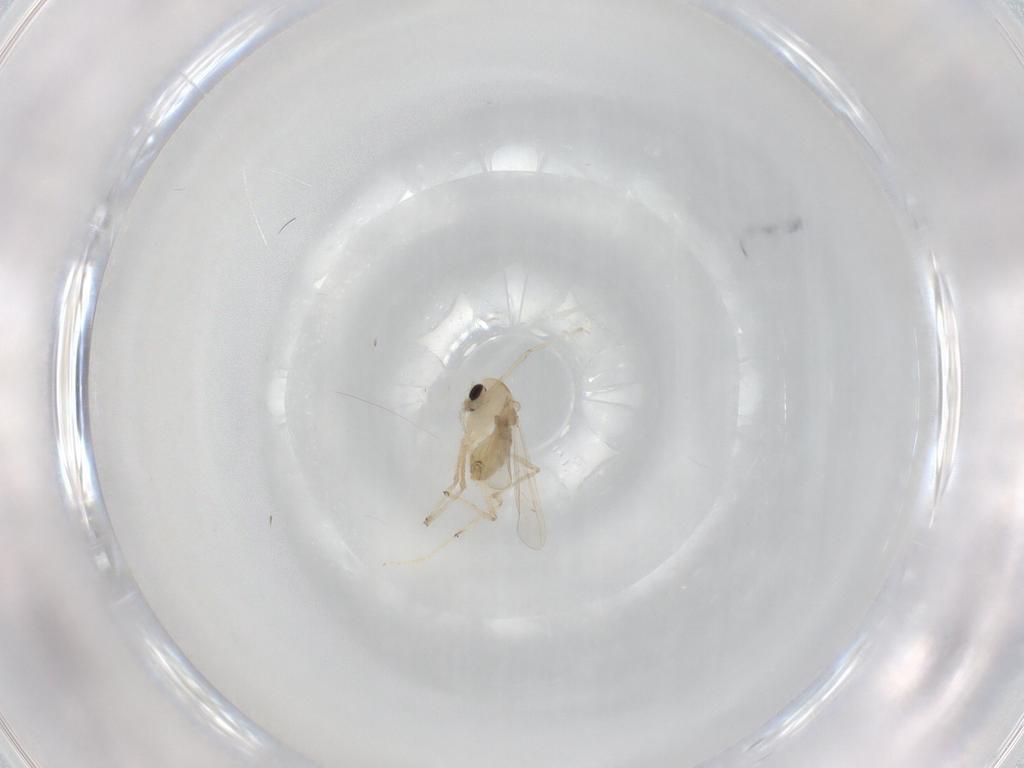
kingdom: Animalia
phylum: Arthropoda
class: Insecta
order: Diptera
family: Chironomidae
